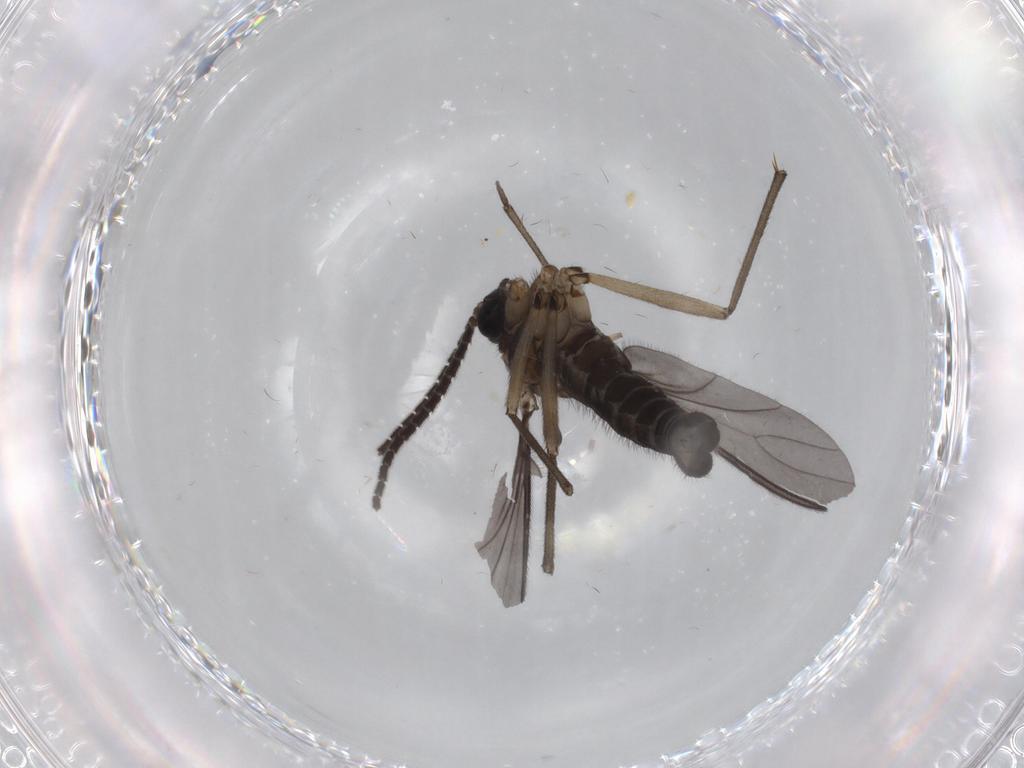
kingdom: Animalia
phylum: Arthropoda
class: Insecta
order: Diptera
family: Sciaridae
